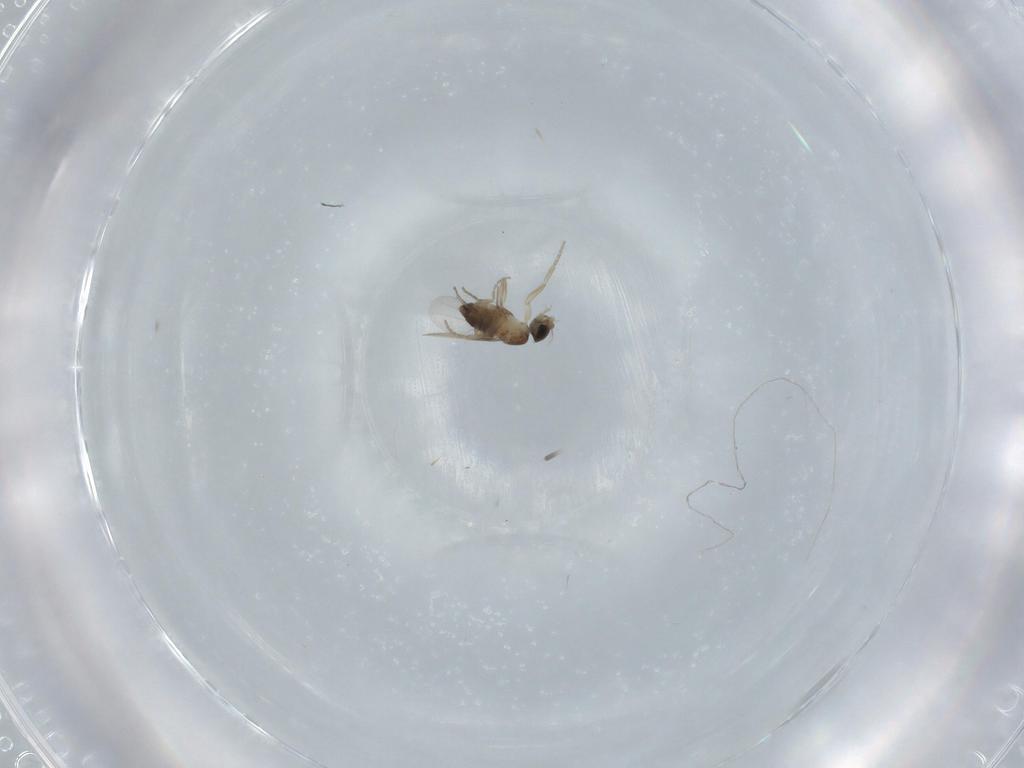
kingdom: Animalia
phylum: Arthropoda
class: Insecta
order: Diptera
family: Phoridae
